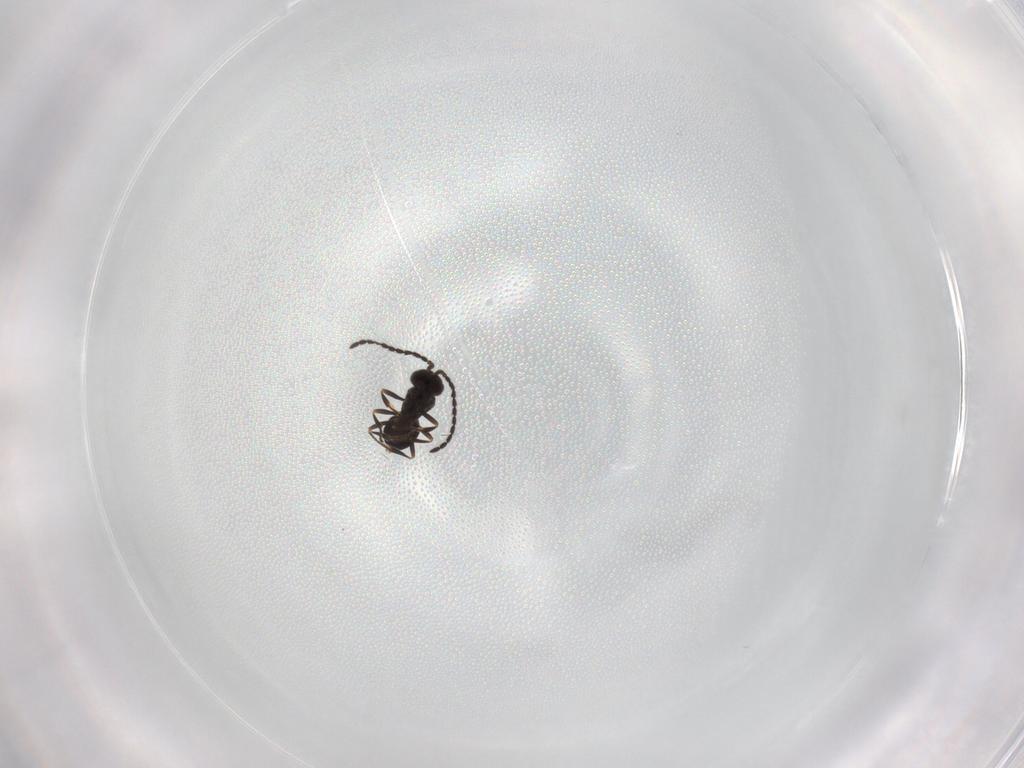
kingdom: Animalia
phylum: Arthropoda
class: Insecta
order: Hymenoptera
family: Scelionidae
